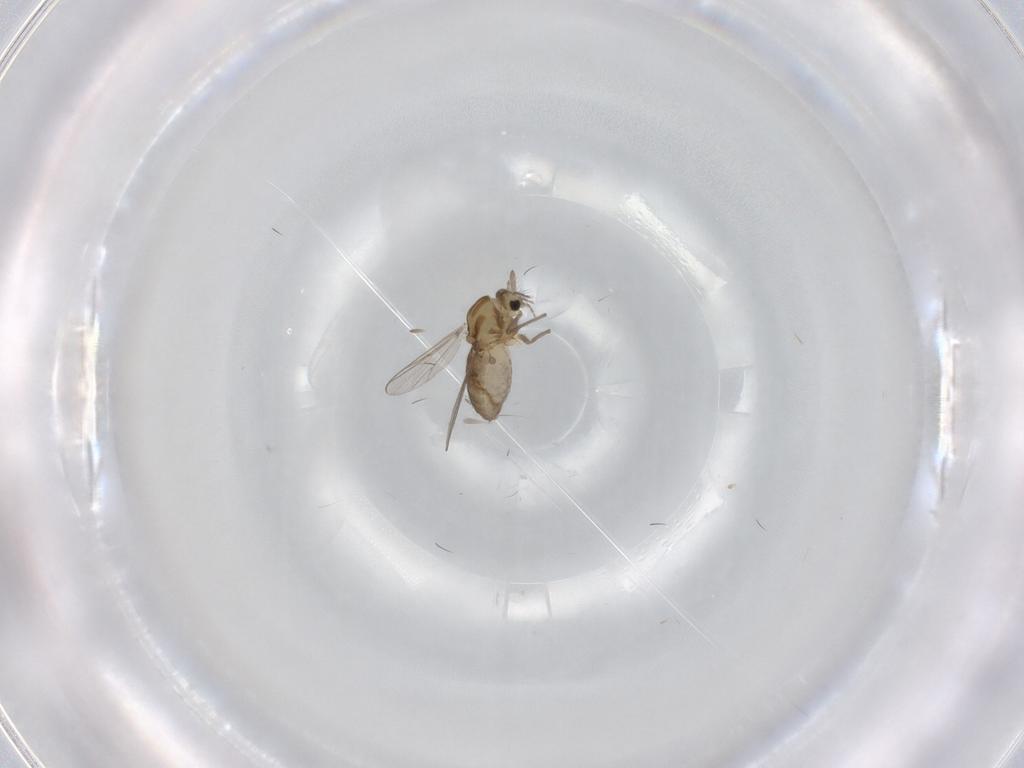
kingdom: Animalia
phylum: Arthropoda
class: Insecta
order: Diptera
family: Chironomidae
